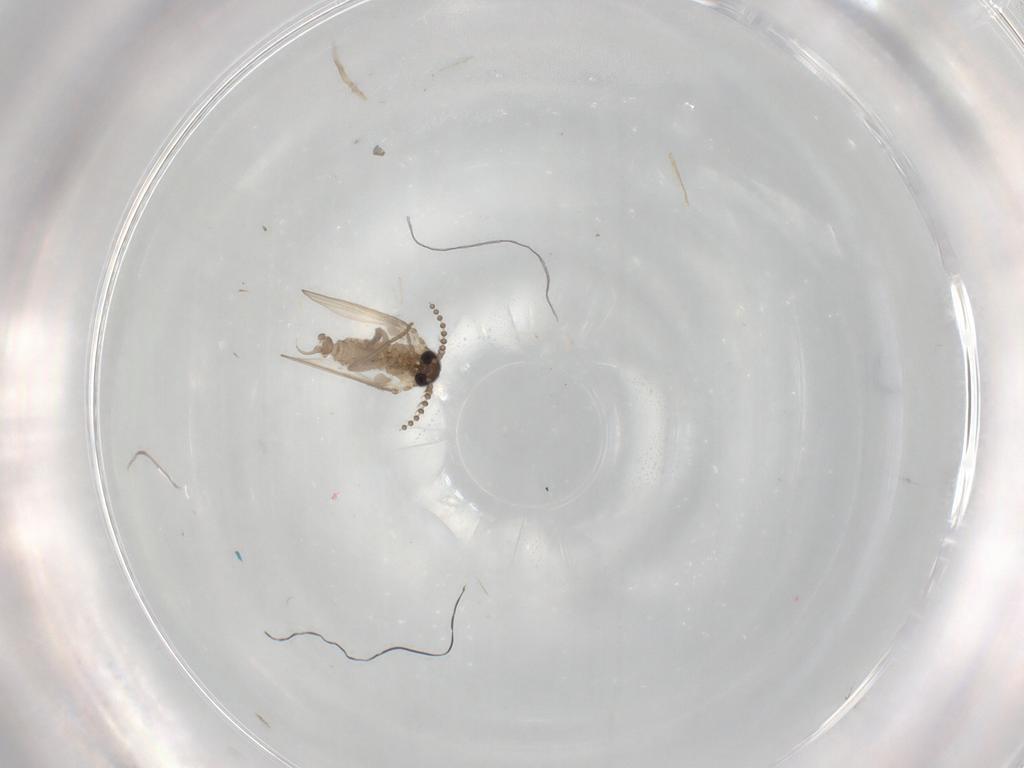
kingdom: Animalia
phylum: Arthropoda
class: Insecta
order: Diptera
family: Psychodidae
